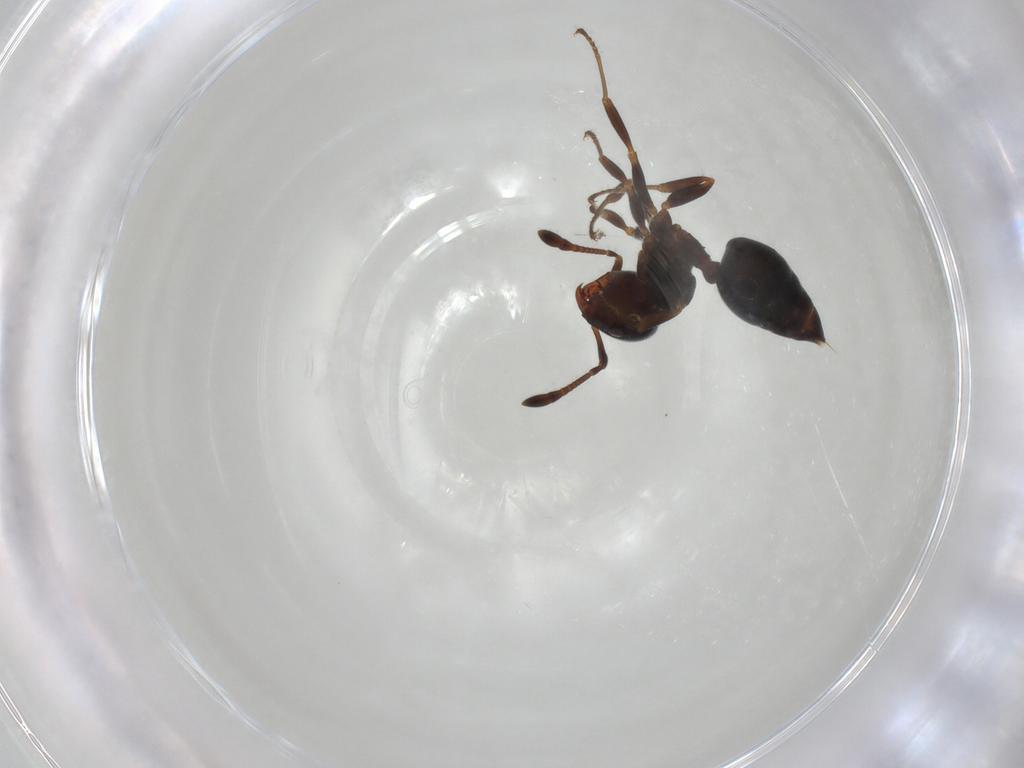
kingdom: Animalia
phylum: Arthropoda
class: Insecta
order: Hymenoptera
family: Formicidae
